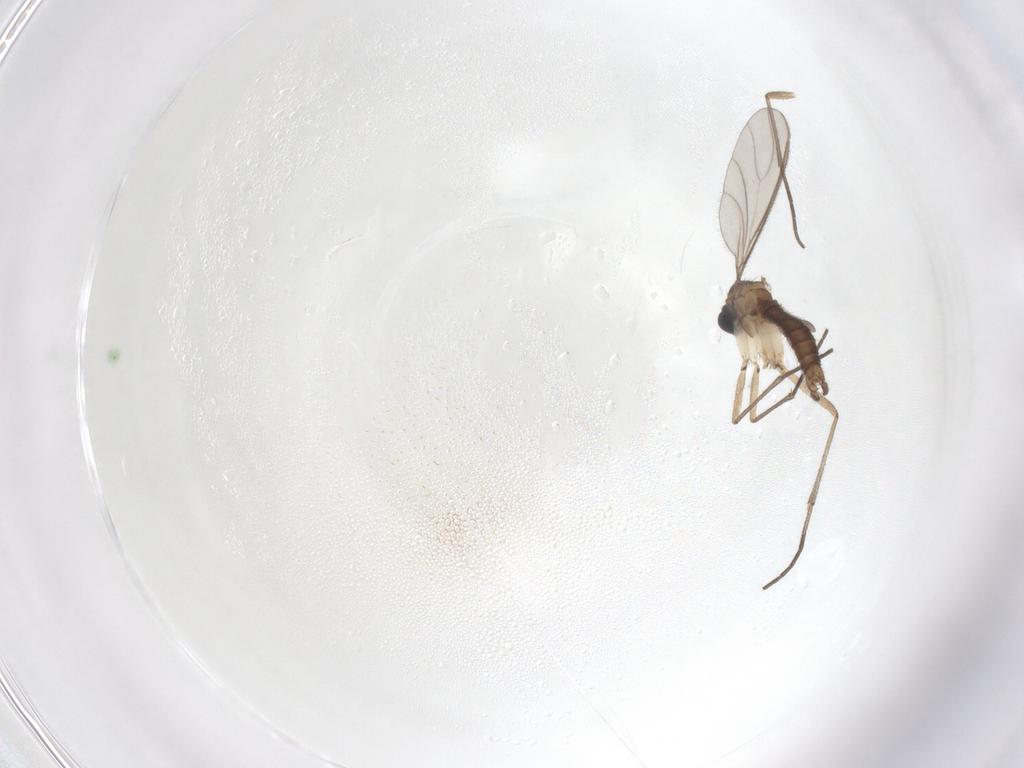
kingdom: Animalia
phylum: Arthropoda
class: Insecta
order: Diptera
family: Sciaridae
